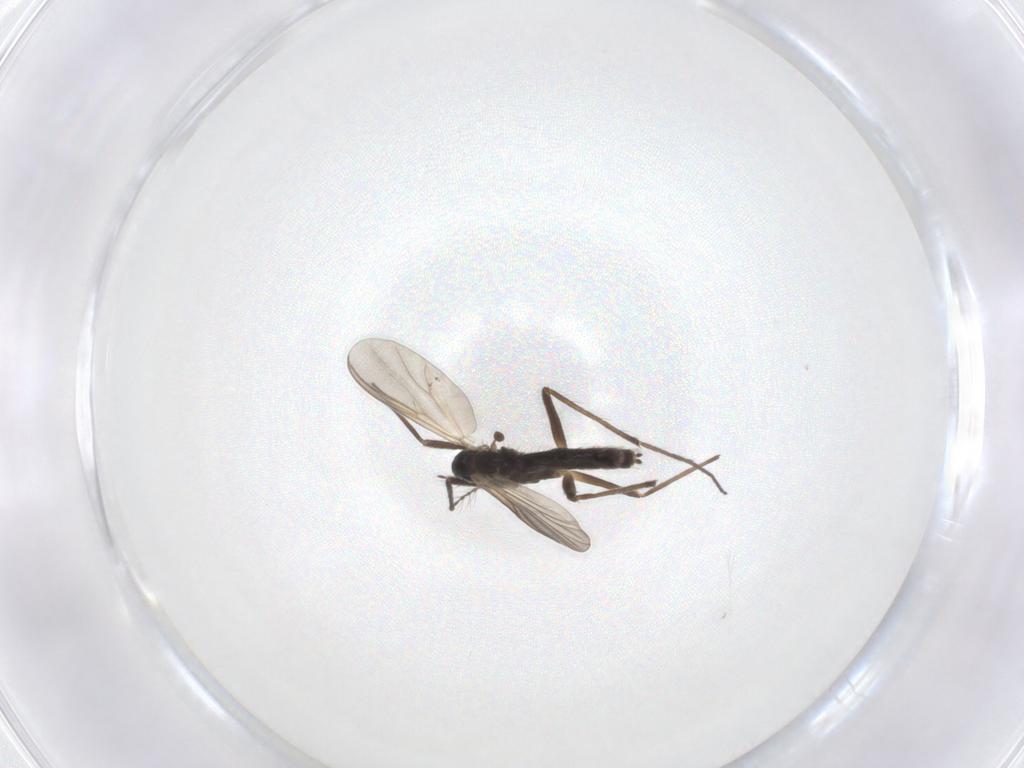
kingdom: Animalia
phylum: Arthropoda
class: Insecta
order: Diptera
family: Chironomidae
